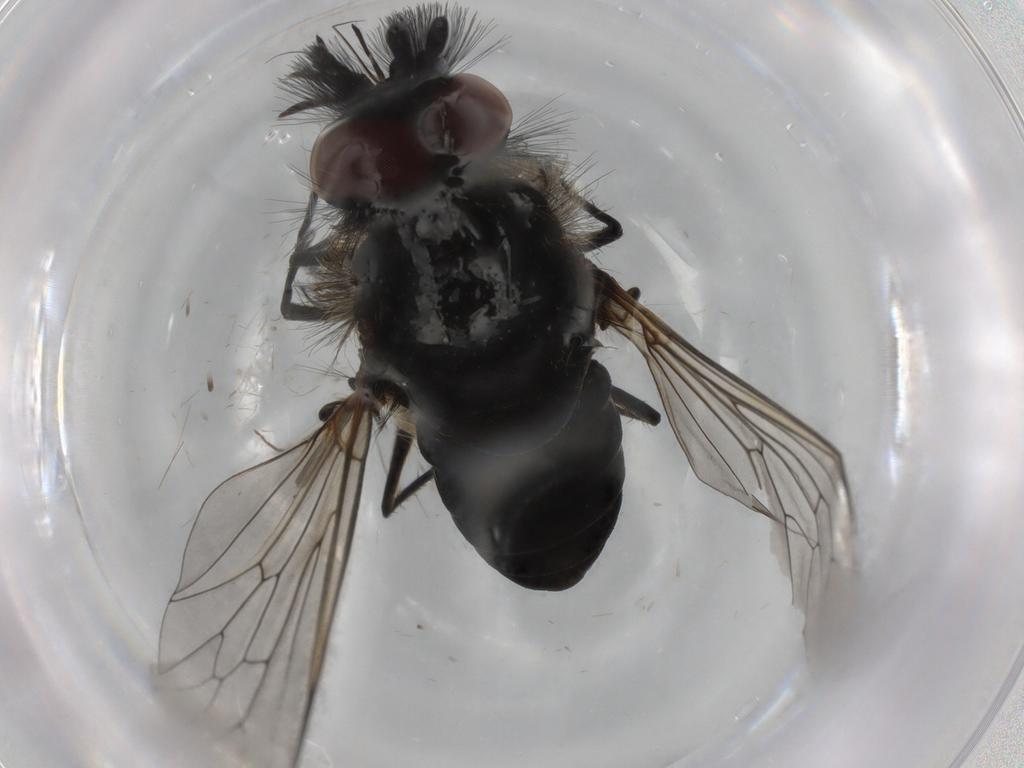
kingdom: Animalia
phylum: Arthropoda
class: Insecta
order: Diptera
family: Bombyliidae
